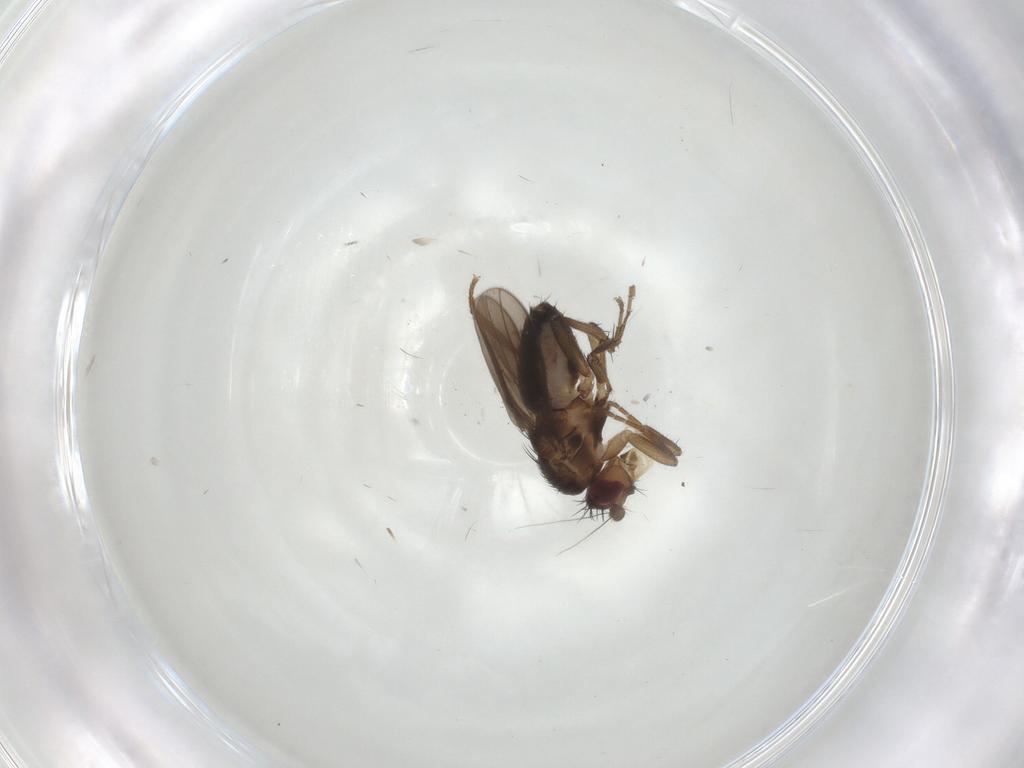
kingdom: Animalia
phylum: Arthropoda
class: Insecta
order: Diptera
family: Sphaeroceridae
